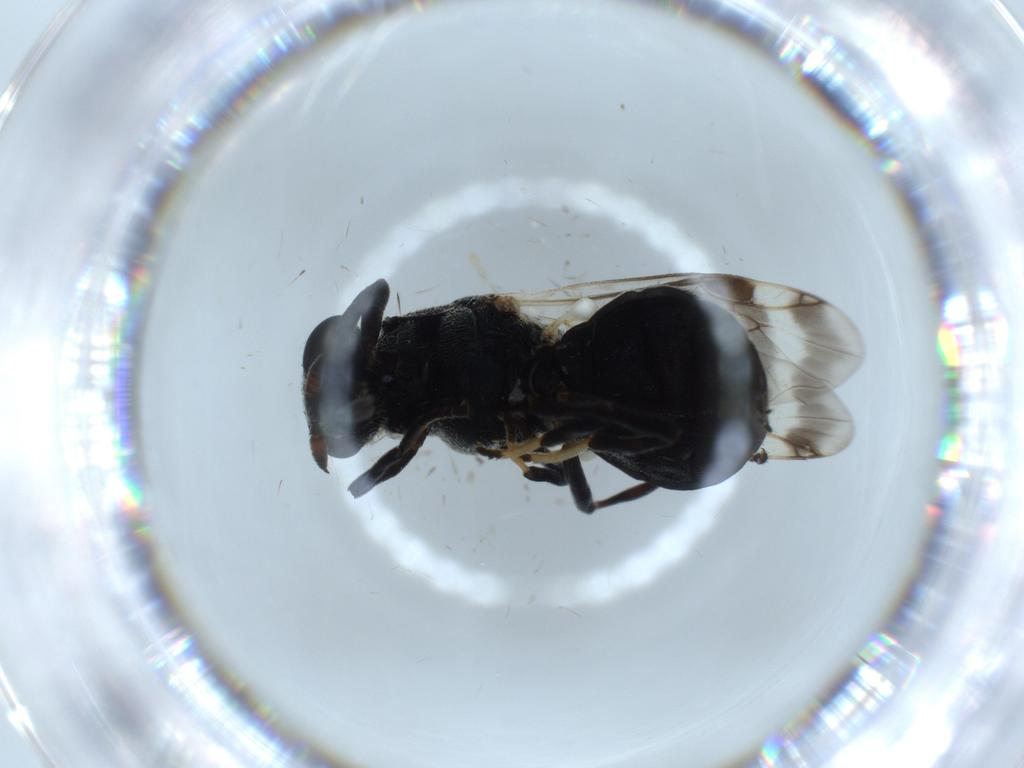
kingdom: Animalia
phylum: Arthropoda
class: Insecta
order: Diptera
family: Stratiomyidae
